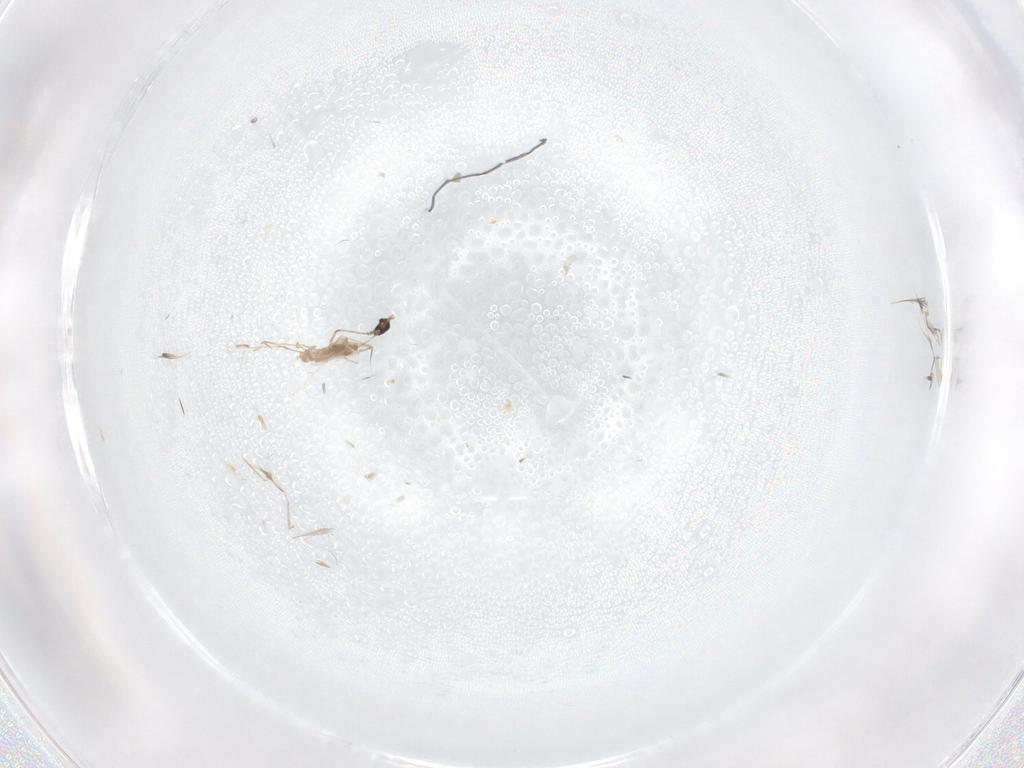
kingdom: Animalia
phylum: Arthropoda
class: Insecta
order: Diptera
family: Cecidomyiidae
